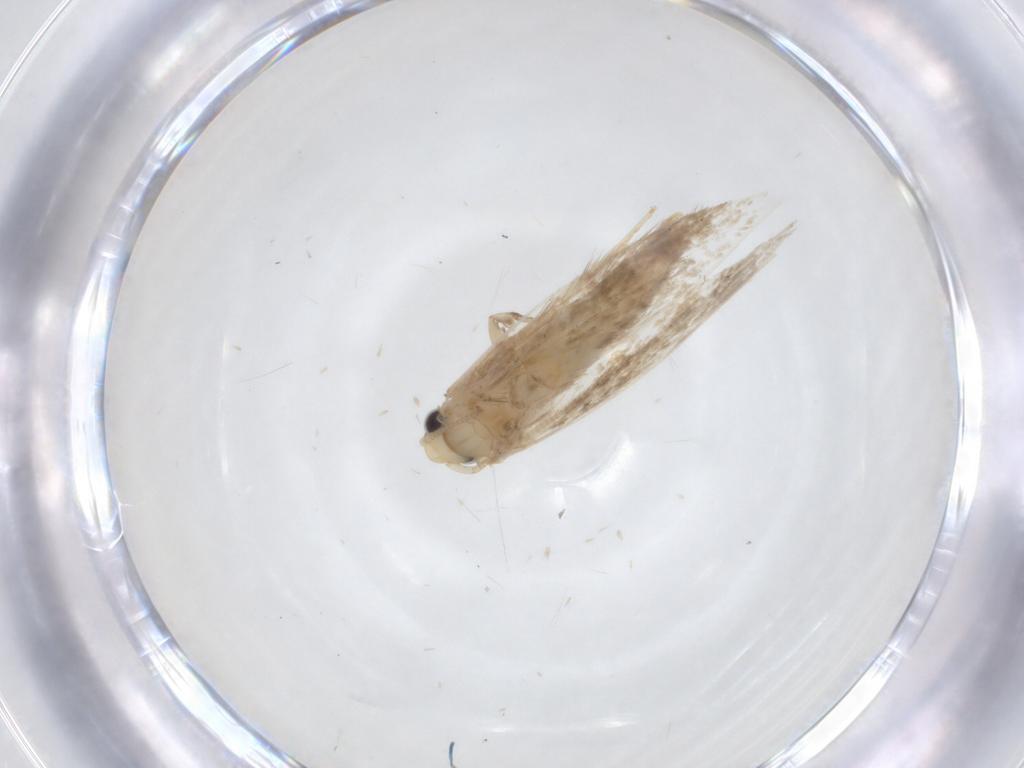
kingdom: Animalia
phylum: Arthropoda
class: Insecta
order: Lepidoptera
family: Tineidae
